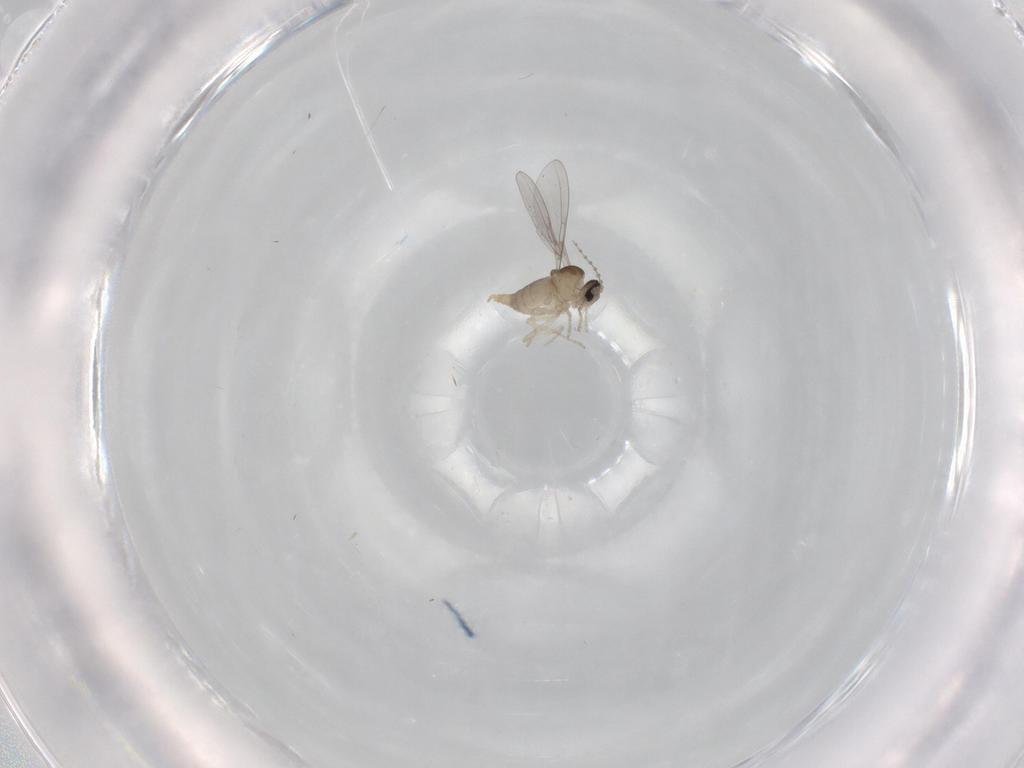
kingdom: Animalia
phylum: Arthropoda
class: Insecta
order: Diptera
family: Cecidomyiidae
